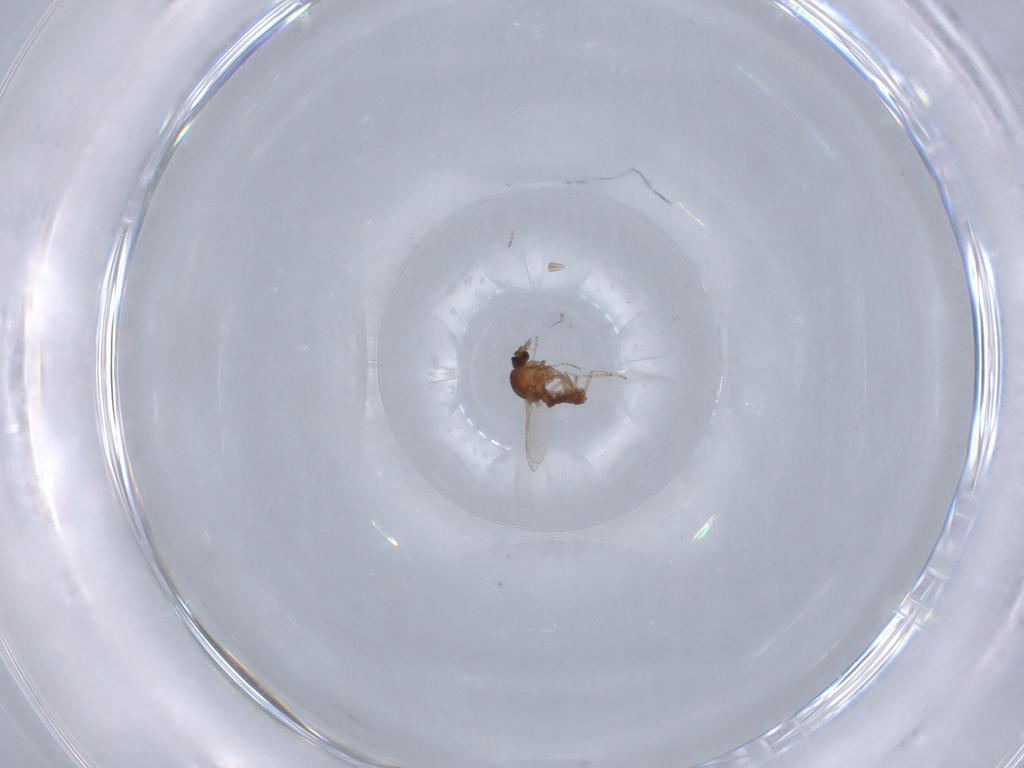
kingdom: Animalia
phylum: Arthropoda
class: Insecta
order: Diptera
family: Ceratopogonidae
